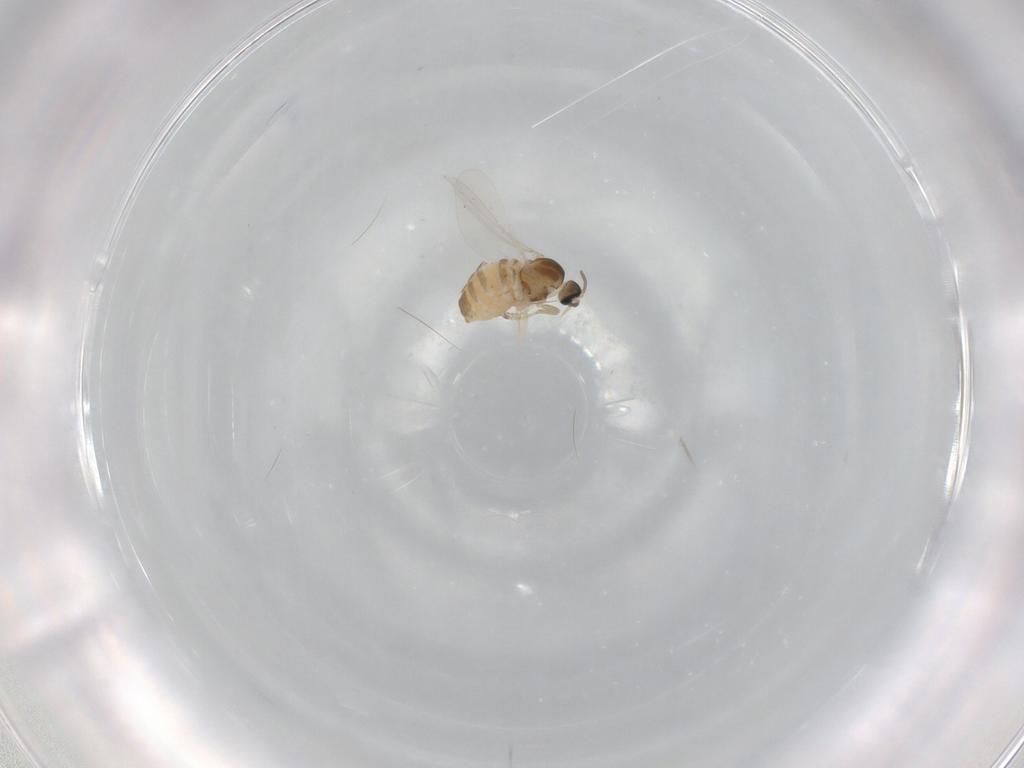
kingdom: Animalia
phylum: Arthropoda
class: Insecta
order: Diptera
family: Cecidomyiidae
